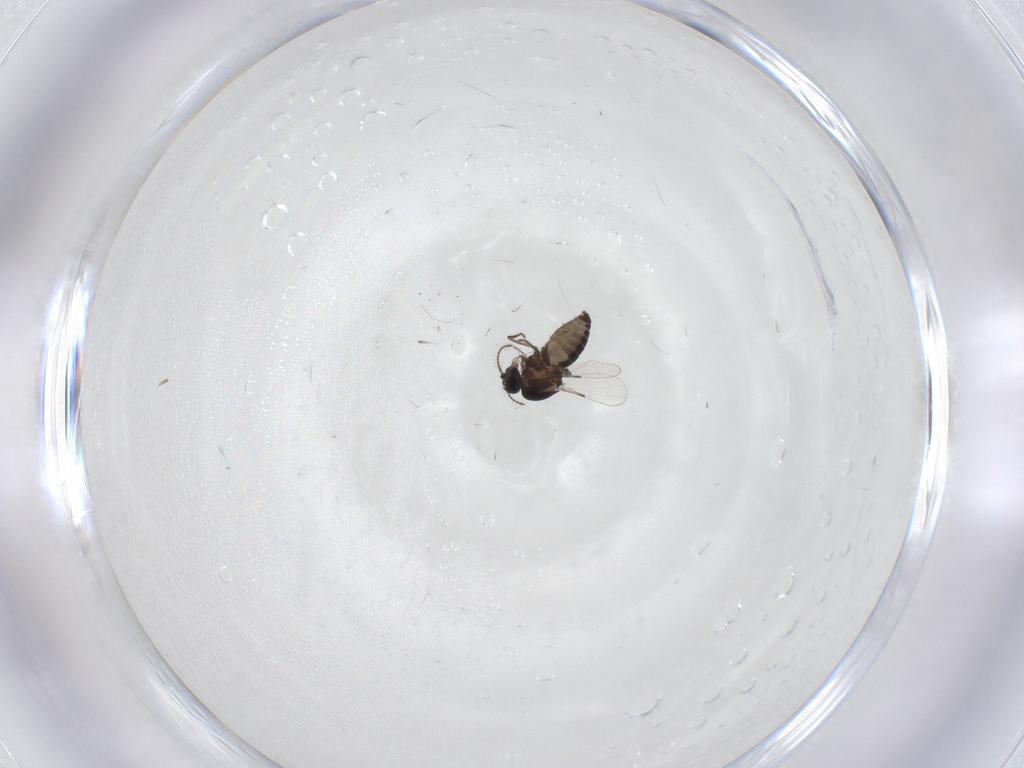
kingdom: Animalia
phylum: Arthropoda
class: Insecta
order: Diptera
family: Ceratopogonidae
